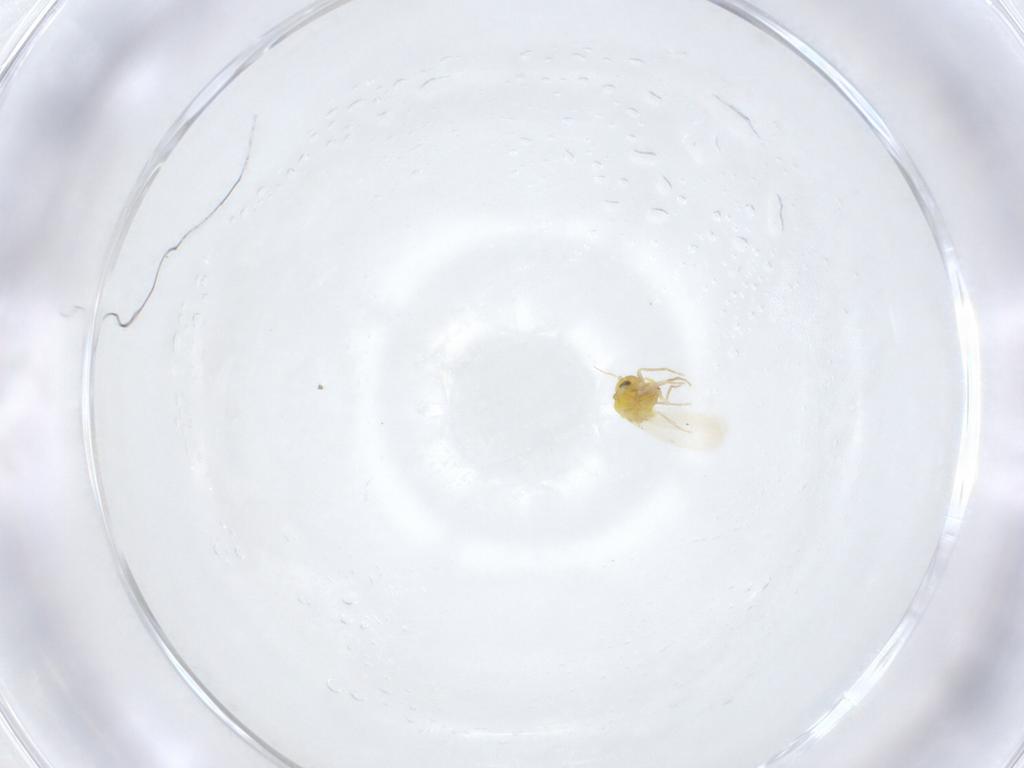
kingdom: Animalia
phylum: Arthropoda
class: Insecta
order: Hemiptera
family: Aleyrodidae
